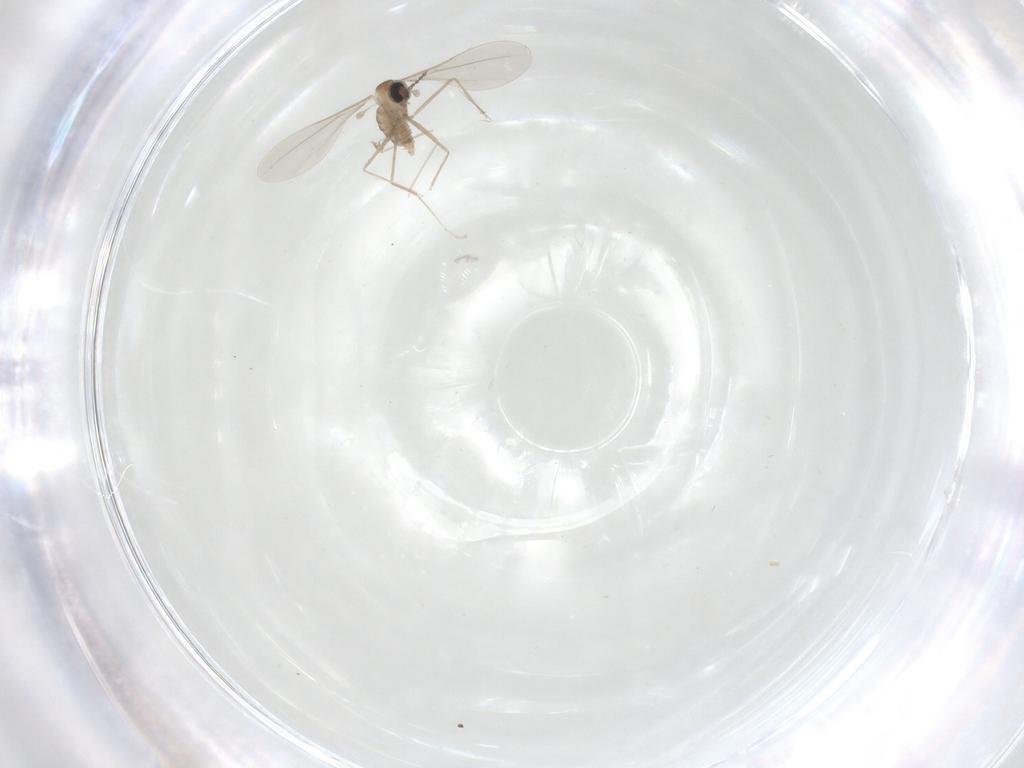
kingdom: Animalia
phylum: Arthropoda
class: Insecta
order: Diptera
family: Cecidomyiidae
